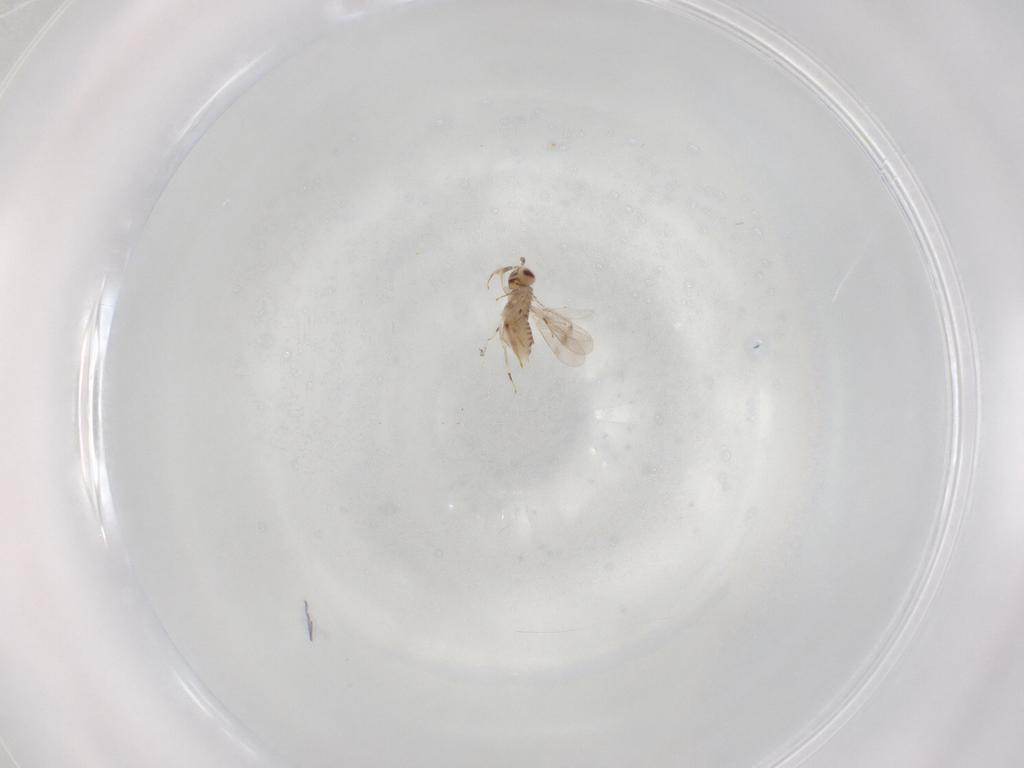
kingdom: Animalia
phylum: Arthropoda
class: Insecta
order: Hymenoptera
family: Aphelinidae
